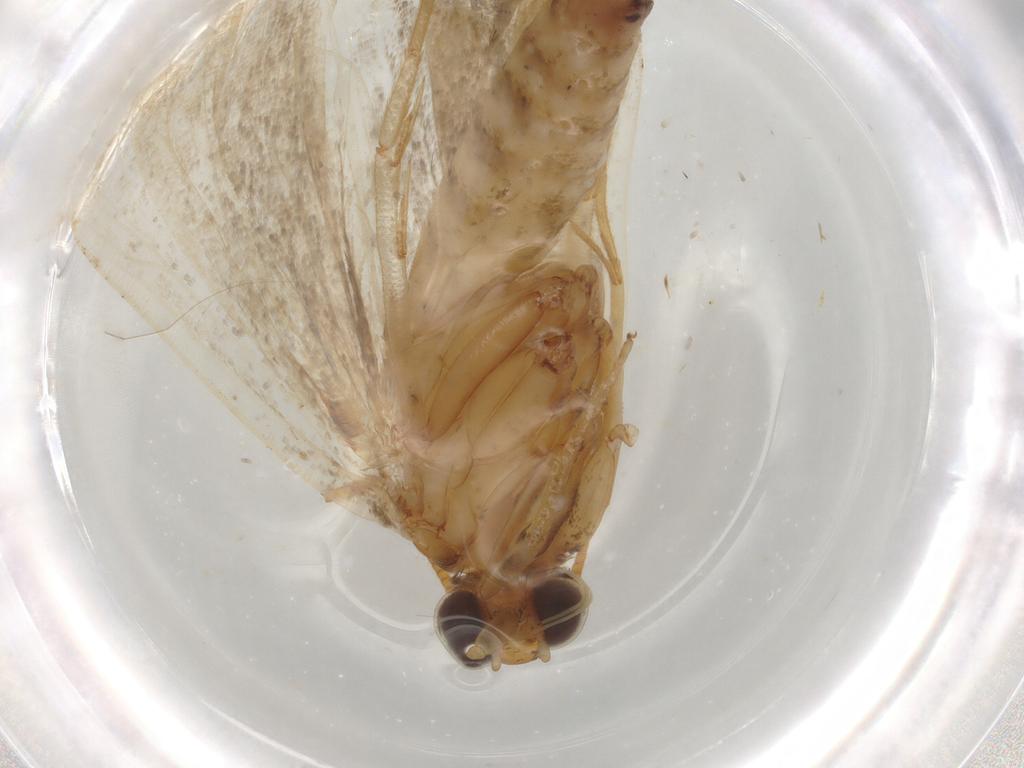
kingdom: Animalia
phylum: Arthropoda
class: Insecta
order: Lepidoptera
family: Crambidae
